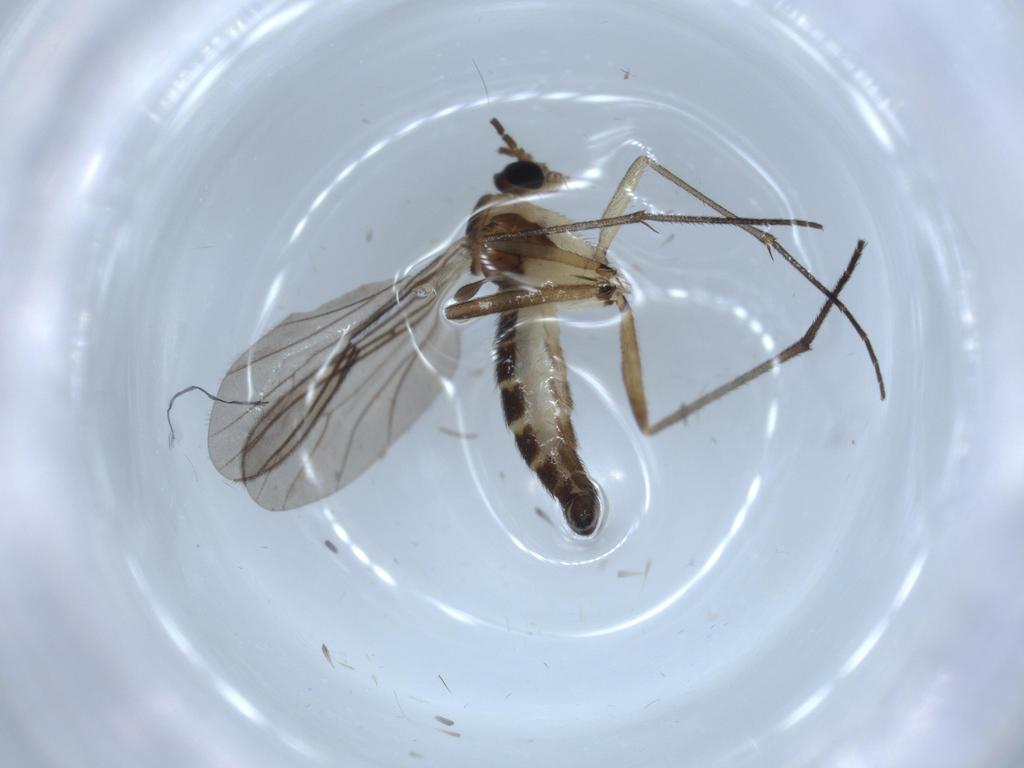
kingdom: Animalia
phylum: Arthropoda
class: Insecta
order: Diptera
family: Sciaridae
